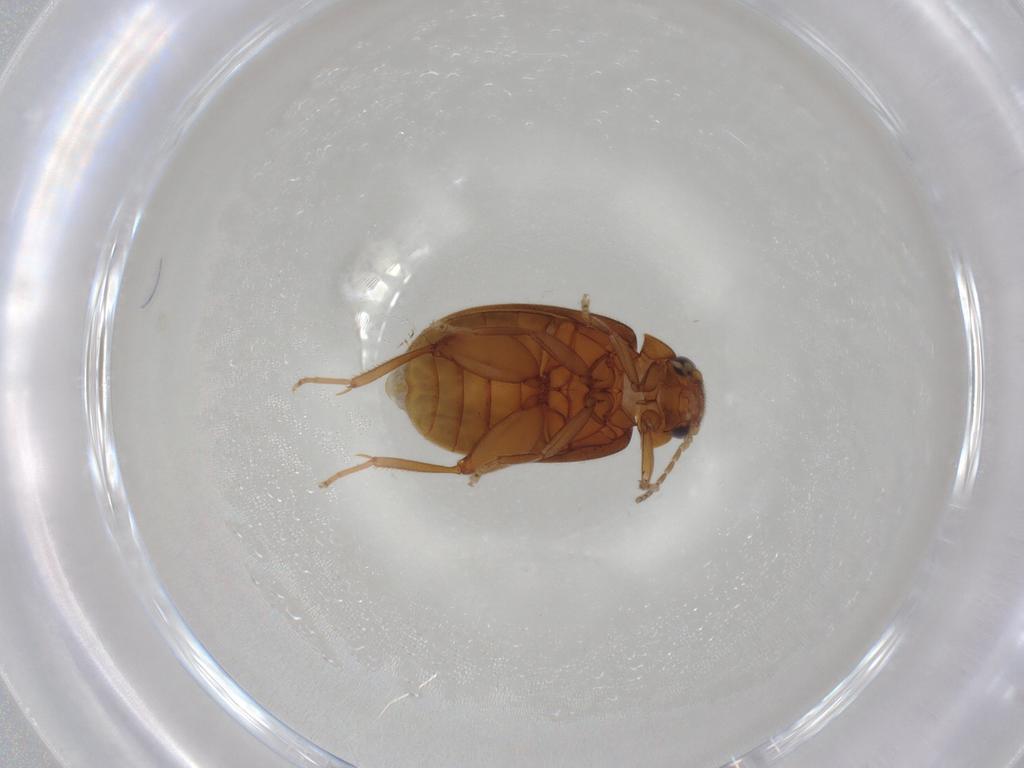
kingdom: Animalia
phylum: Arthropoda
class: Insecta
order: Coleoptera
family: Scirtidae
